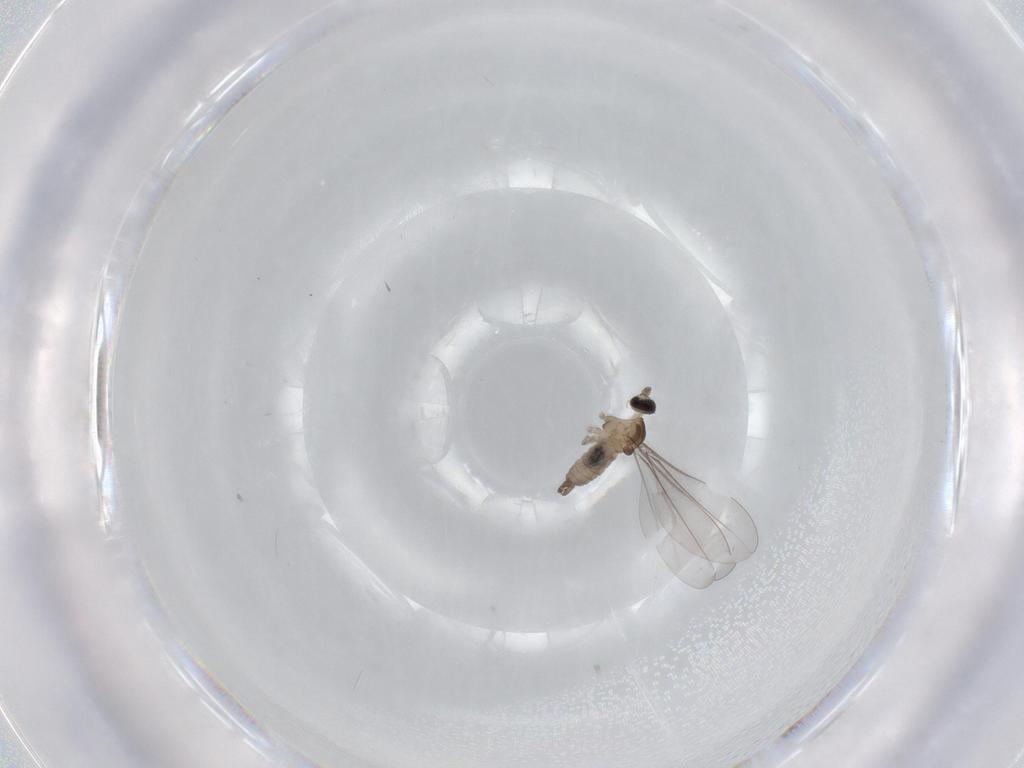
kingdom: Animalia
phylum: Arthropoda
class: Insecta
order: Diptera
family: Cecidomyiidae
